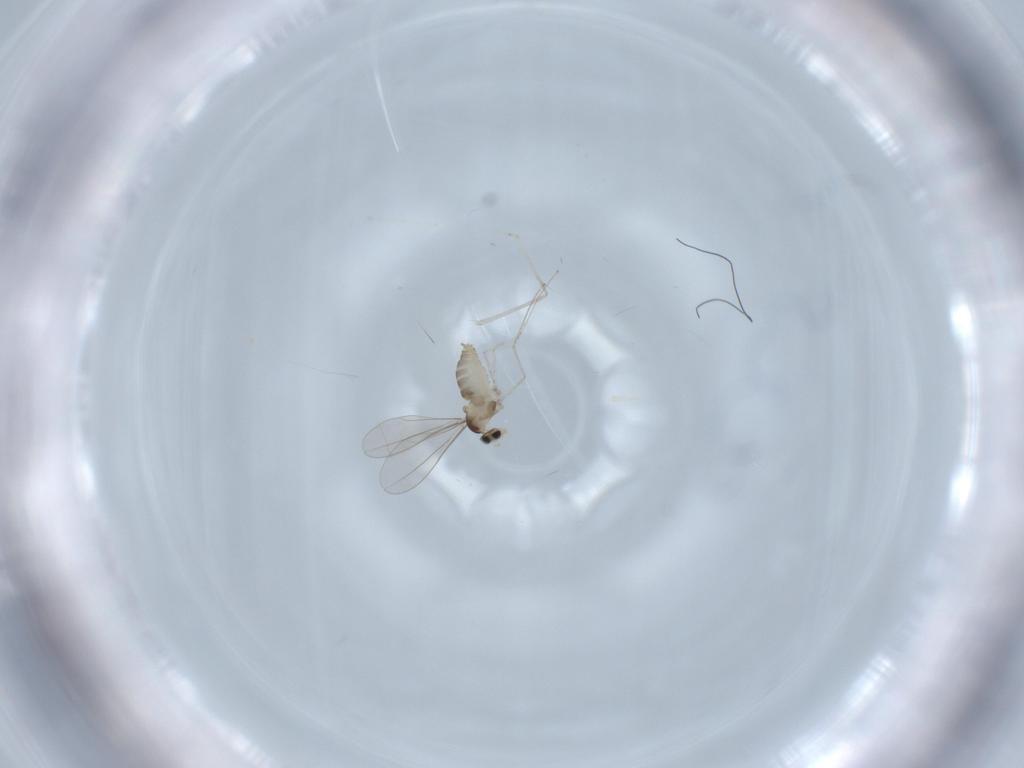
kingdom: Animalia
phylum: Arthropoda
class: Insecta
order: Diptera
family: Cecidomyiidae
